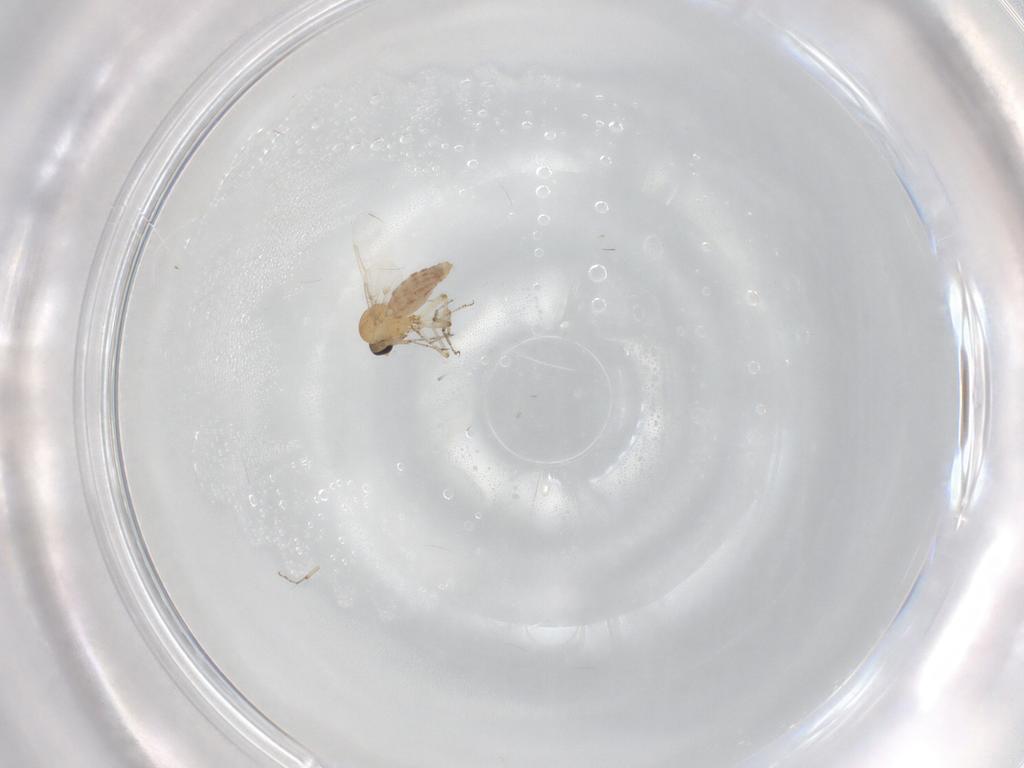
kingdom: Animalia
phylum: Arthropoda
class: Insecta
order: Diptera
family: Ceratopogonidae
